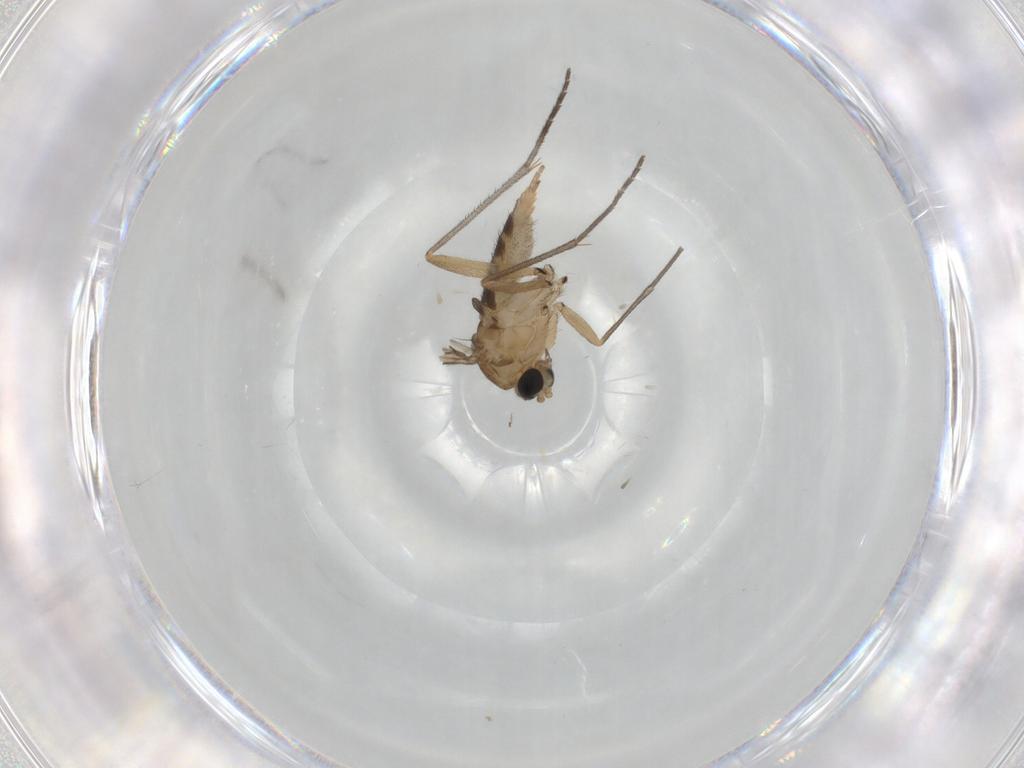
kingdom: Animalia
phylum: Arthropoda
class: Insecta
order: Diptera
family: Sciaridae
